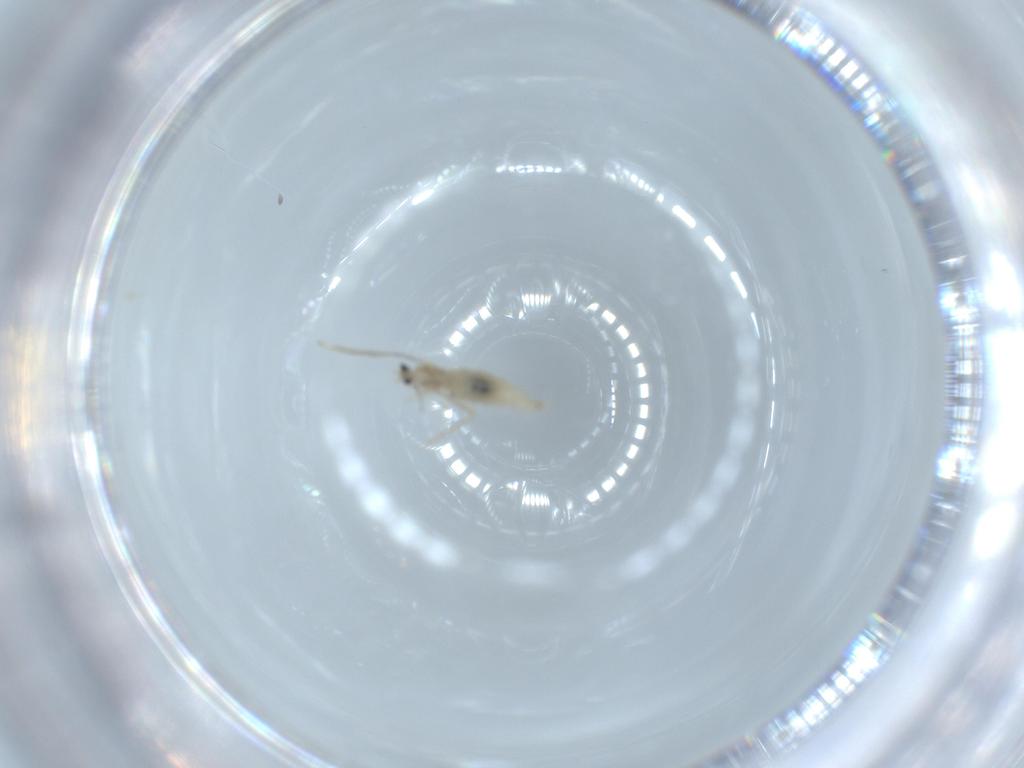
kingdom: Animalia
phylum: Arthropoda
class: Insecta
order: Diptera
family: Cecidomyiidae
